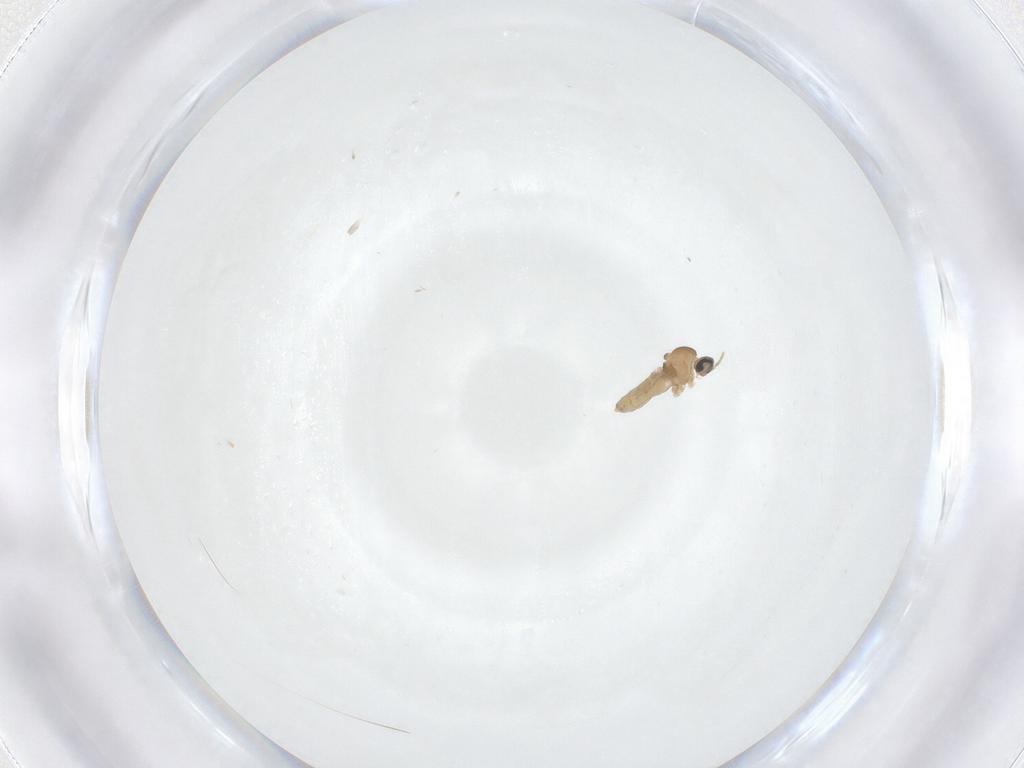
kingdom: Animalia
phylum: Arthropoda
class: Insecta
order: Diptera
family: Cecidomyiidae
